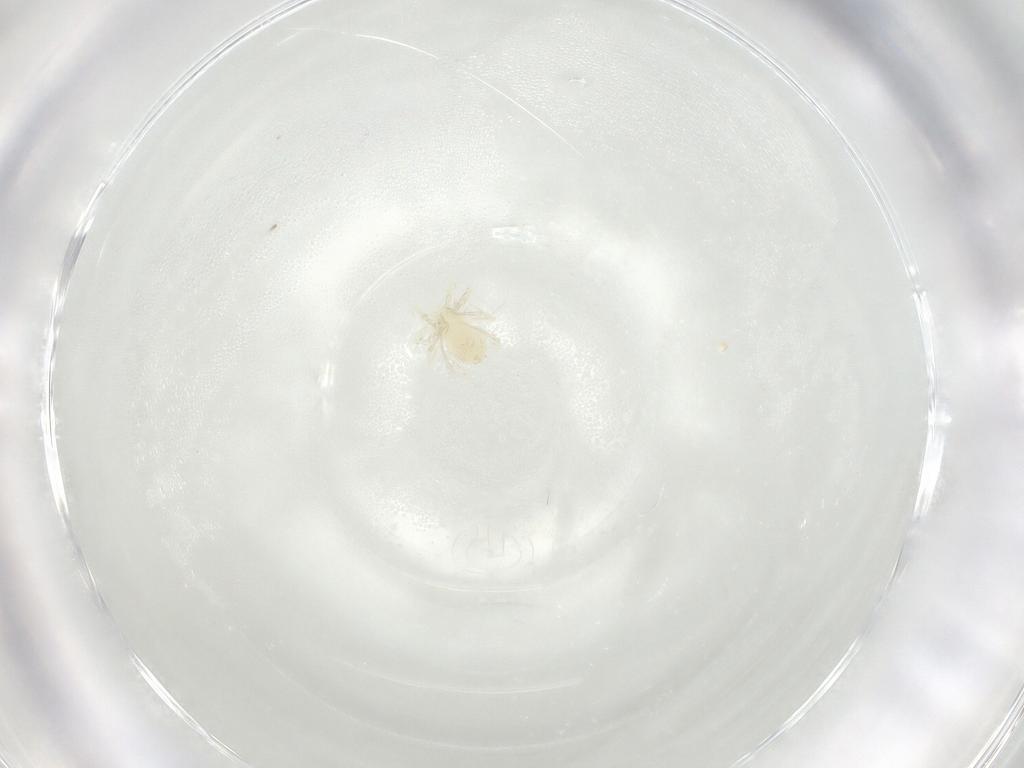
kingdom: Animalia
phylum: Arthropoda
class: Arachnida
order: Trombidiformes
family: Anystidae
